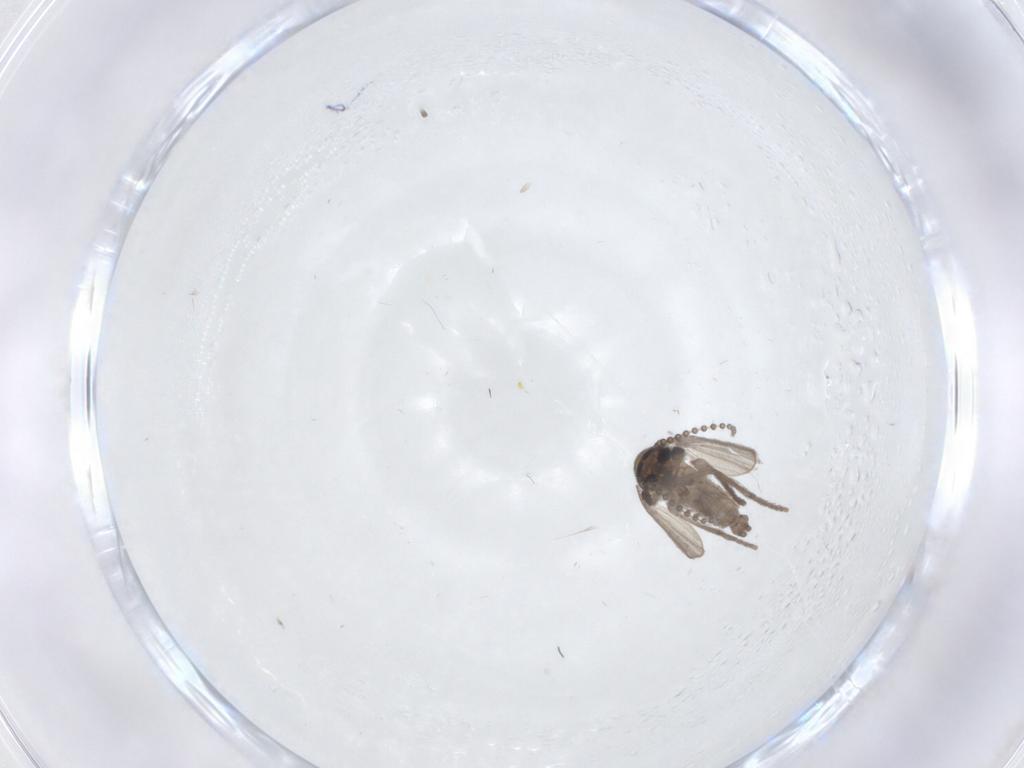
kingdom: Animalia
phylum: Arthropoda
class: Insecta
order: Diptera
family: Psychodidae
